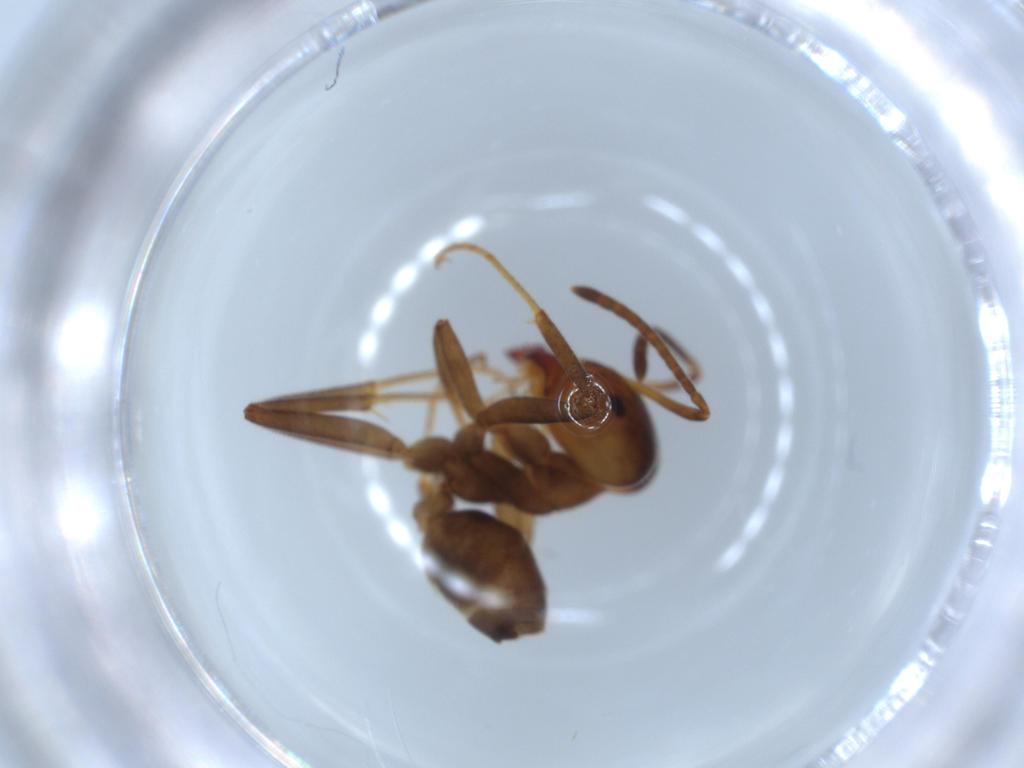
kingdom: Animalia
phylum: Arthropoda
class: Insecta
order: Hymenoptera
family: Formicidae
